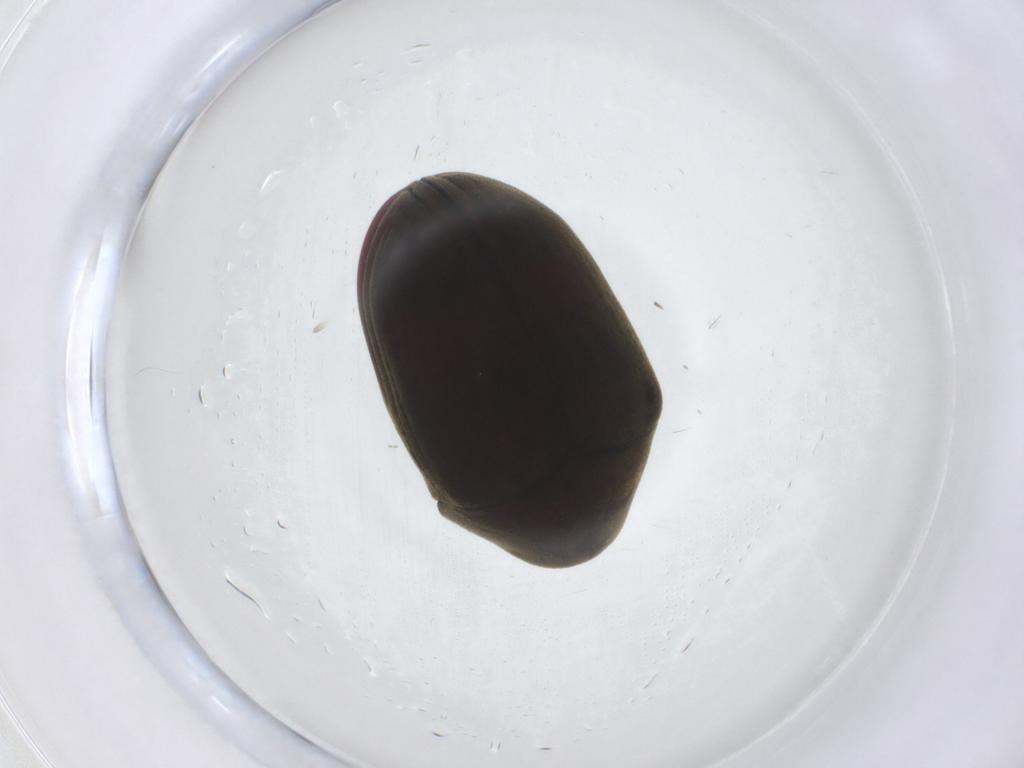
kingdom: Animalia
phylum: Arthropoda
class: Insecta
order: Coleoptera
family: Ptinidae
